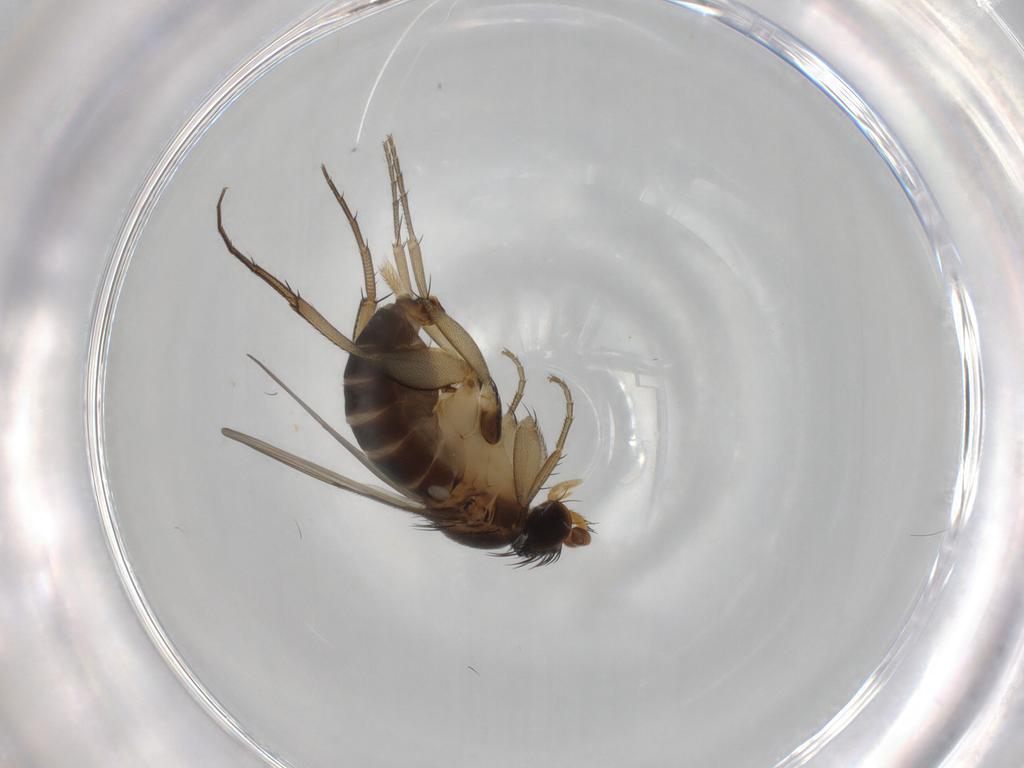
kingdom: Animalia
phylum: Arthropoda
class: Insecta
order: Diptera
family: Phoridae
